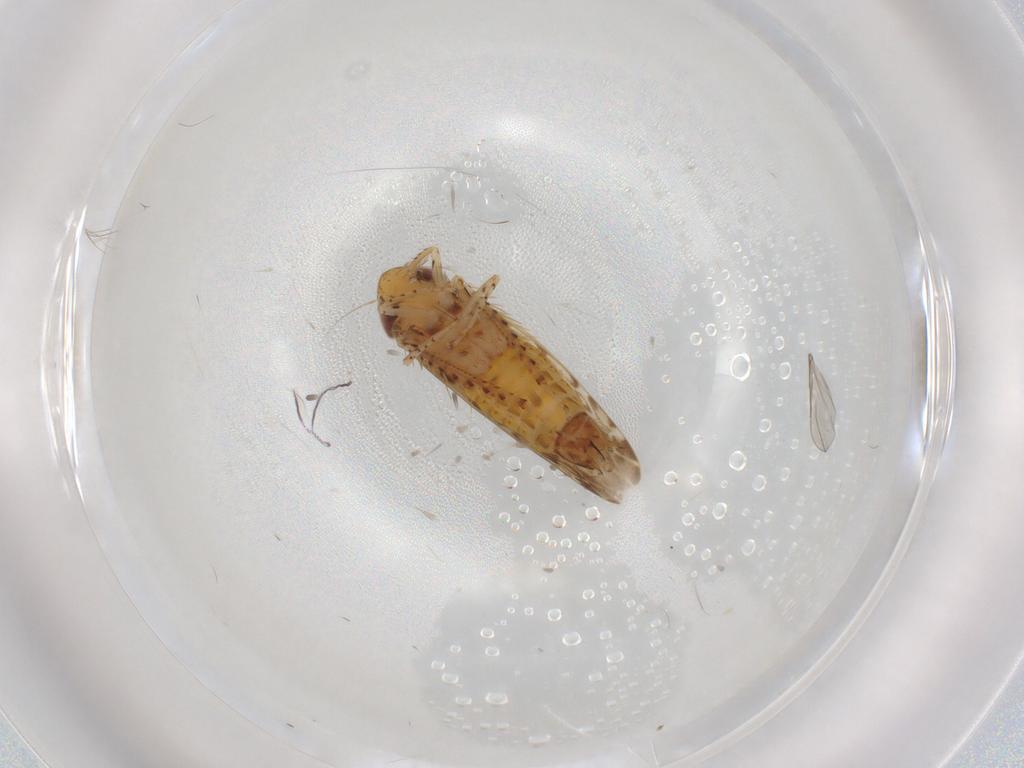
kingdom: Animalia
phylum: Arthropoda
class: Insecta
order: Hemiptera
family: Cicadellidae
